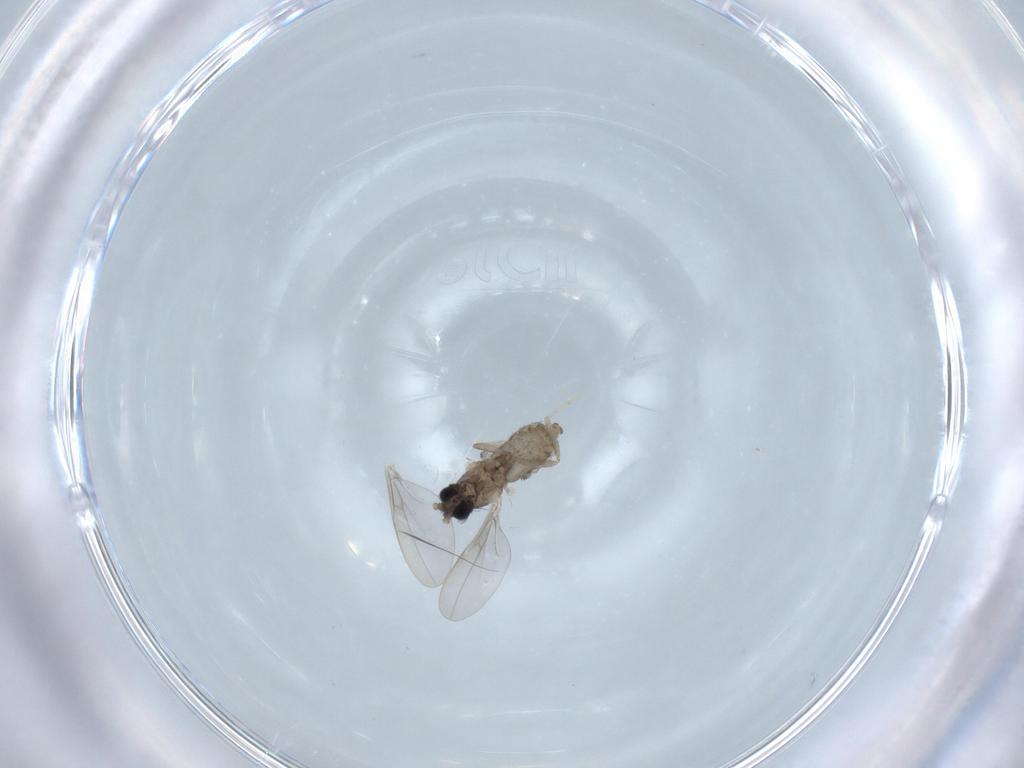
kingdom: Animalia
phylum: Arthropoda
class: Insecta
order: Diptera
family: Cecidomyiidae
